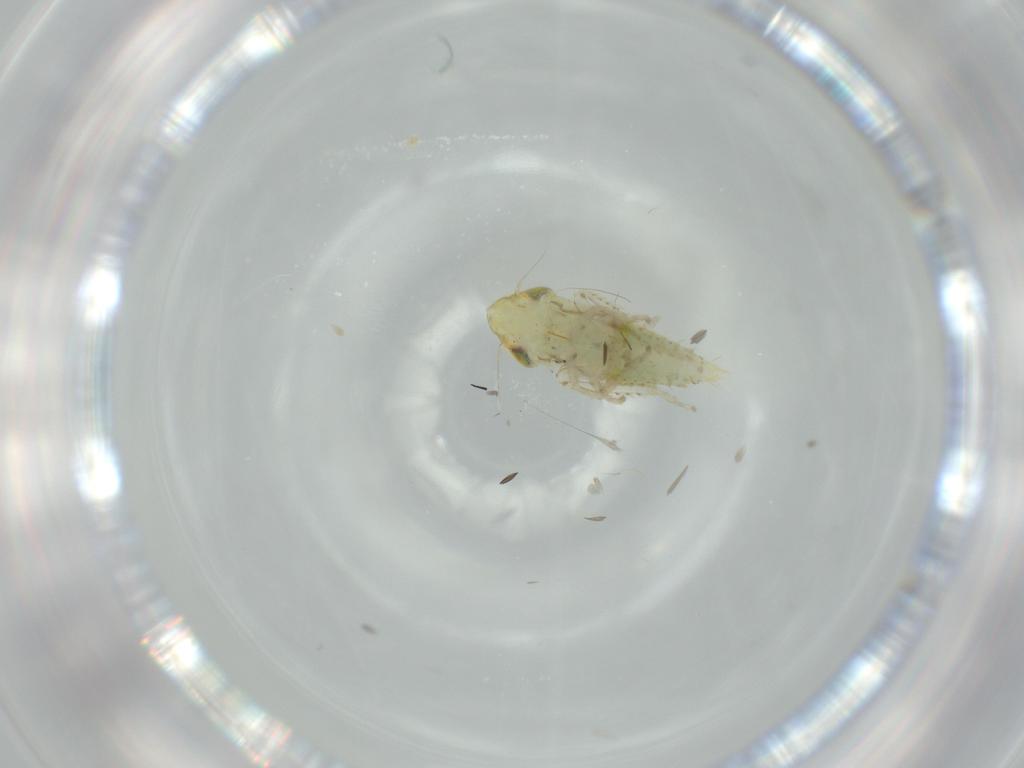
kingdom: Animalia
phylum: Arthropoda
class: Insecta
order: Hemiptera
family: Cicadellidae
